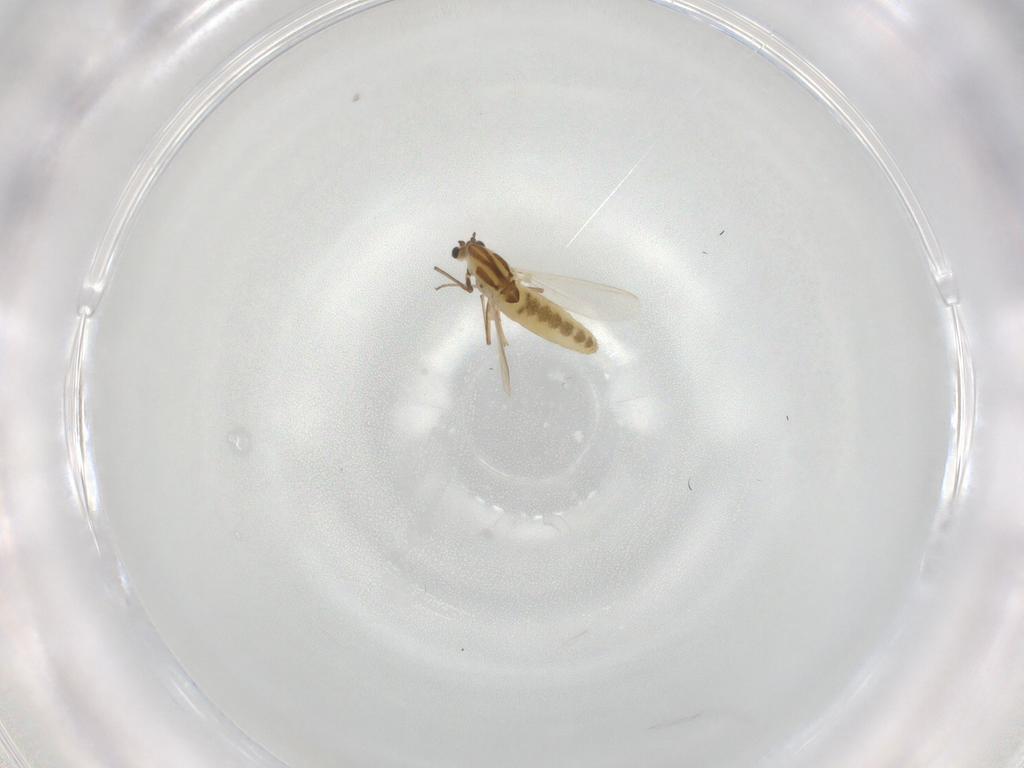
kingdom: Animalia
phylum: Arthropoda
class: Insecta
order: Diptera
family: Chironomidae
